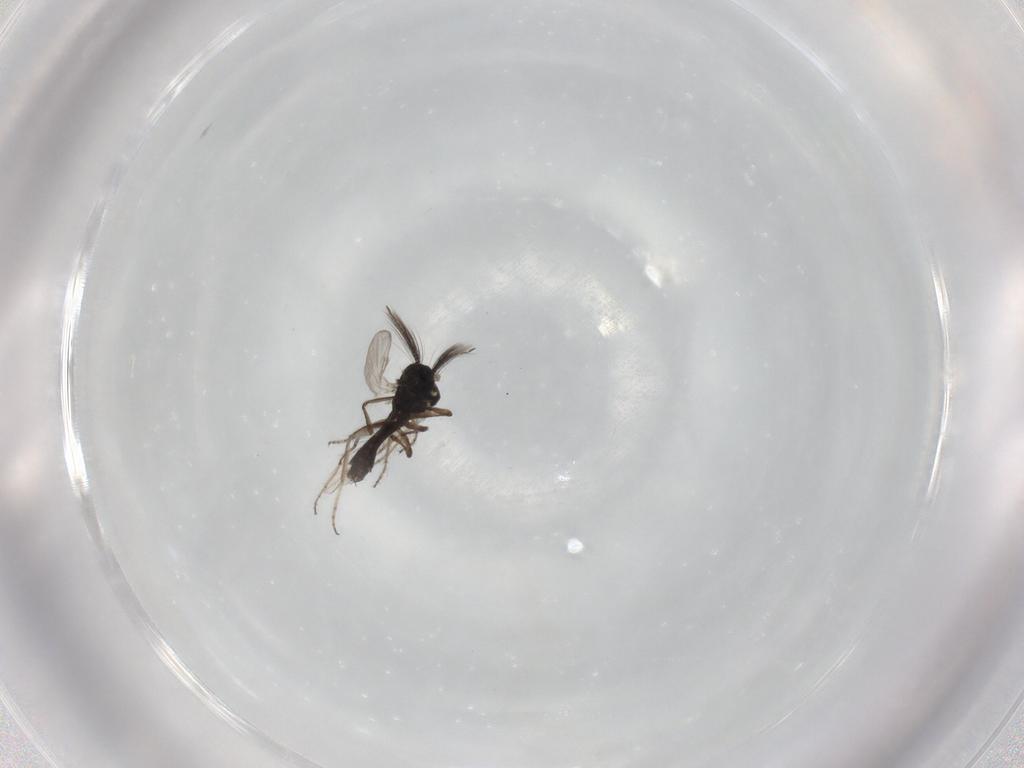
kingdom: Animalia
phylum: Arthropoda
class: Insecta
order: Diptera
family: Ceratopogonidae
